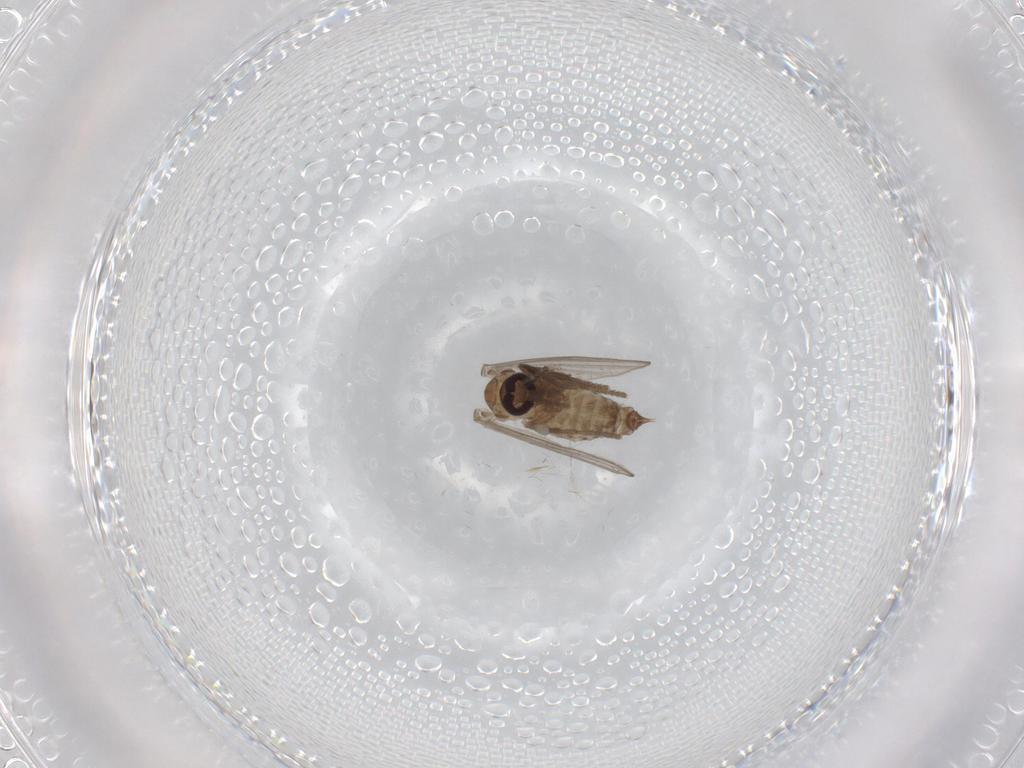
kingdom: Animalia
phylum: Arthropoda
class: Insecta
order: Diptera
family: Psychodidae
